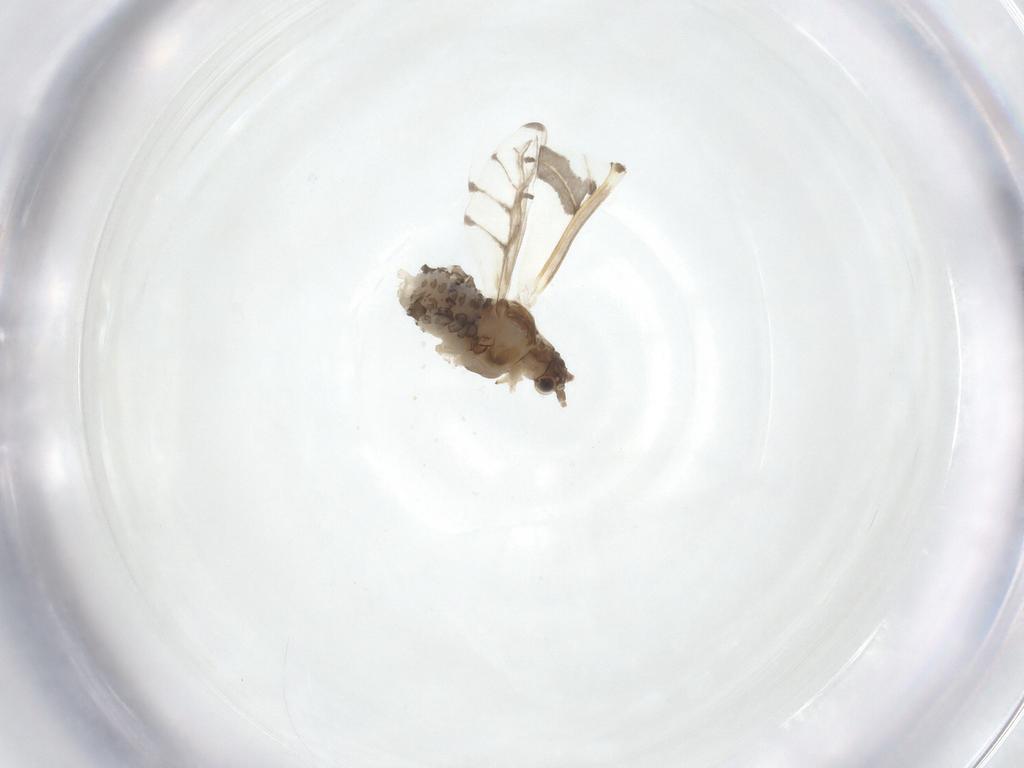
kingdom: Animalia
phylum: Arthropoda
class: Insecta
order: Hemiptera
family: Aphididae
